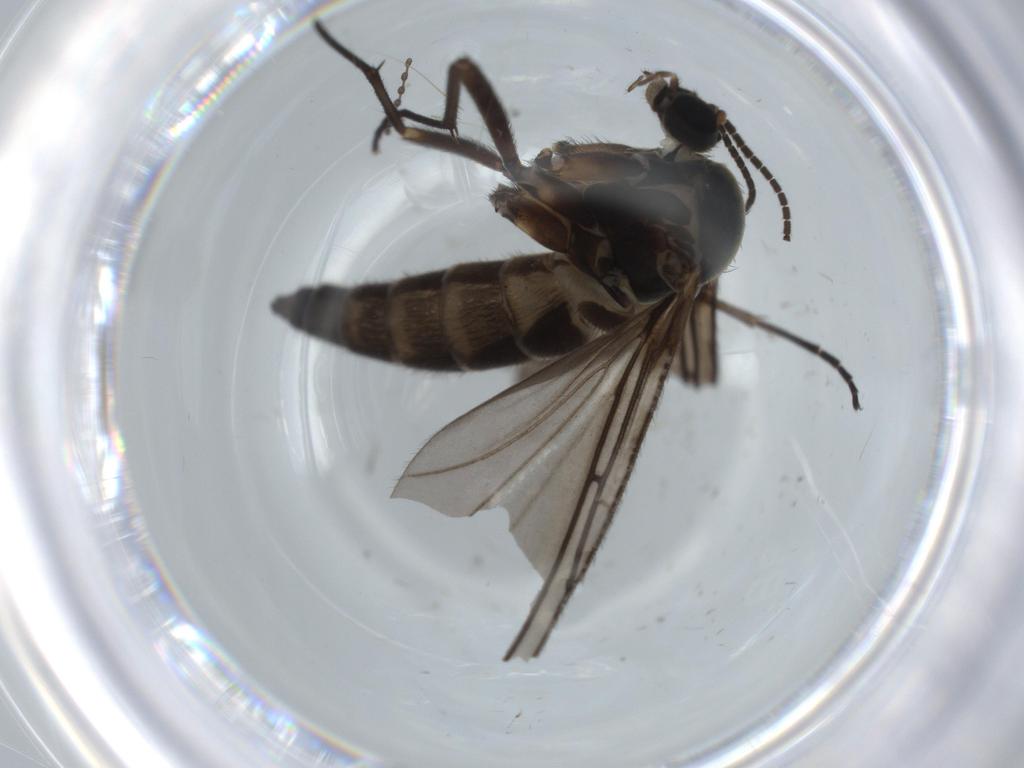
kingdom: Animalia
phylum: Arthropoda
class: Insecta
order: Diptera
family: Sciaridae
